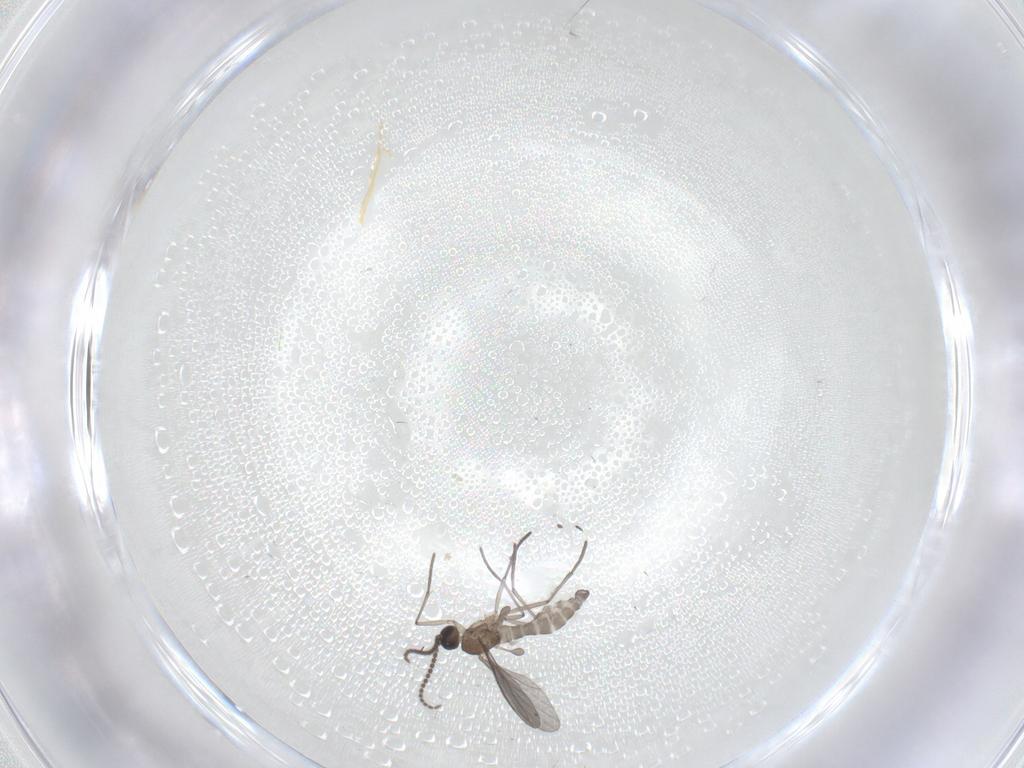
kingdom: Animalia
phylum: Arthropoda
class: Insecta
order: Diptera
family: Sciaridae
